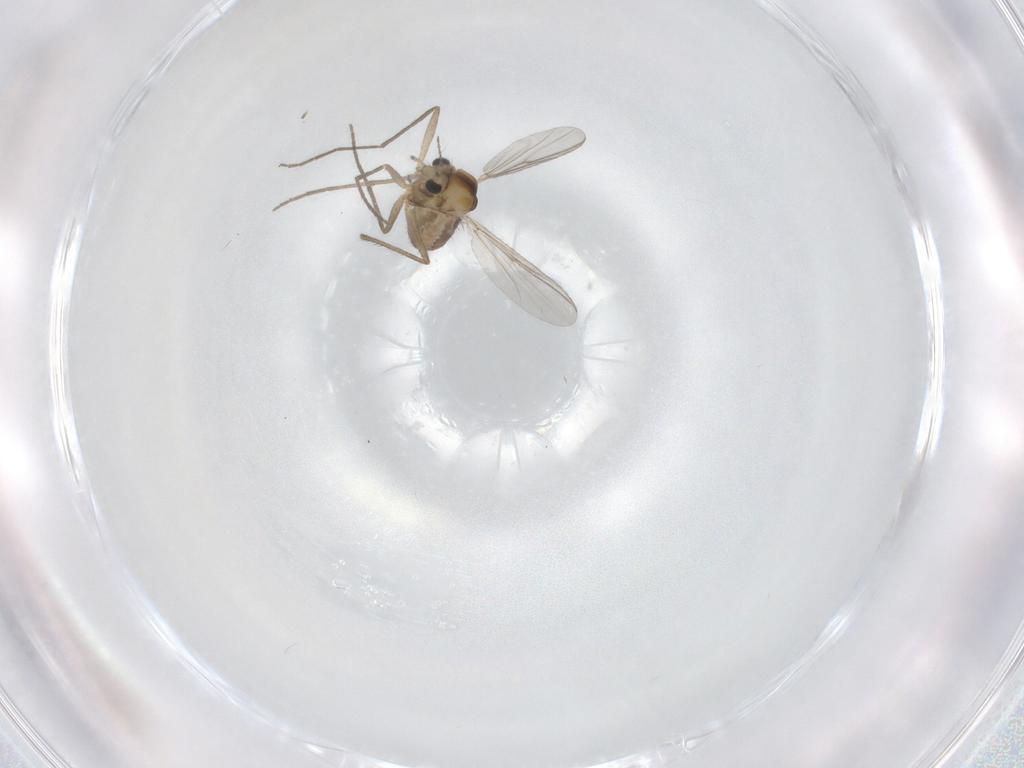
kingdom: Animalia
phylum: Arthropoda
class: Insecta
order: Diptera
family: Chironomidae
